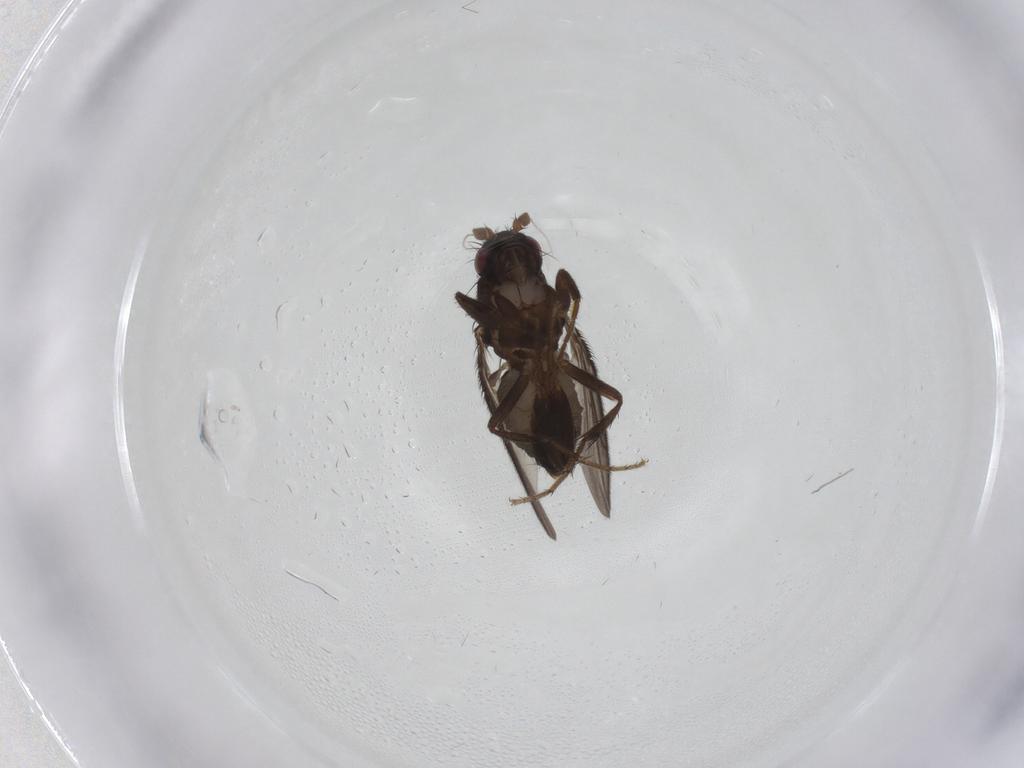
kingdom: Animalia
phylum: Arthropoda
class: Insecta
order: Diptera
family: Sphaeroceridae
